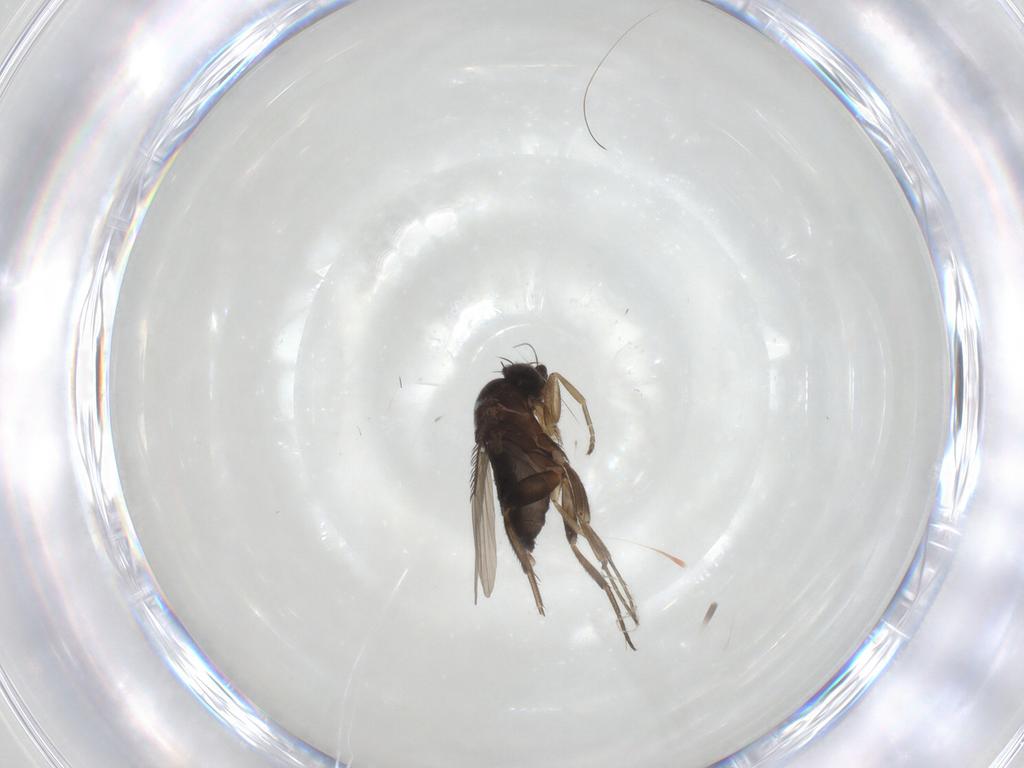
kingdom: Animalia
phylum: Arthropoda
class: Insecta
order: Diptera
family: Phoridae
